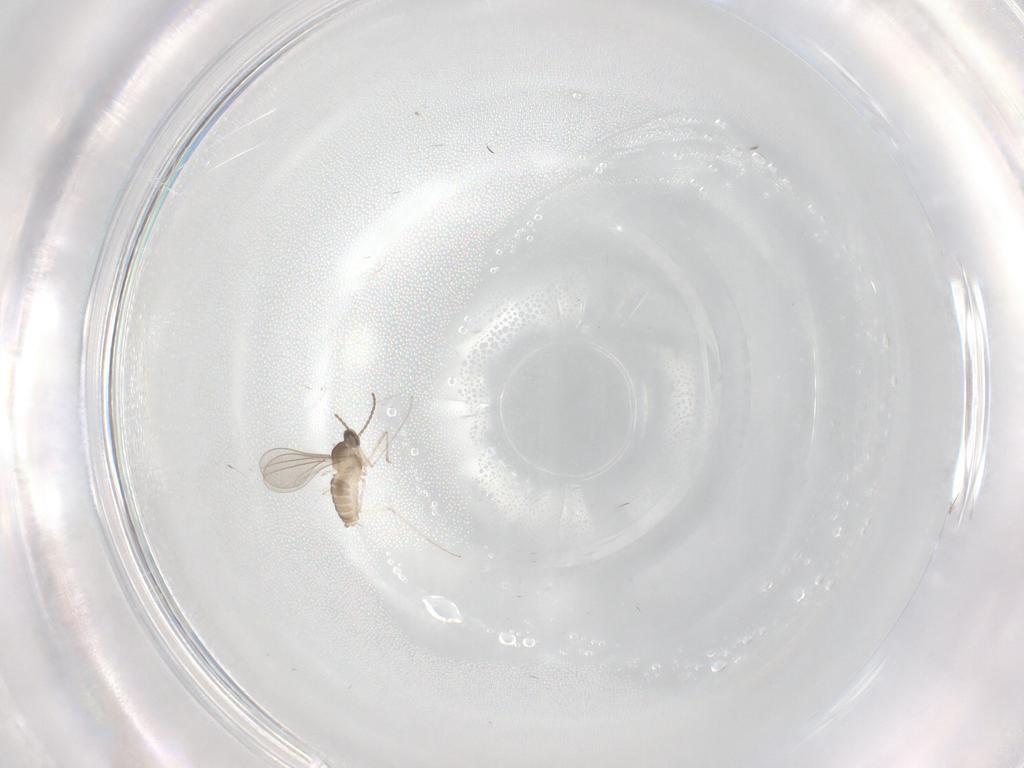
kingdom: Animalia
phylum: Arthropoda
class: Insecta
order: Diptera
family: Lauxaniidae
